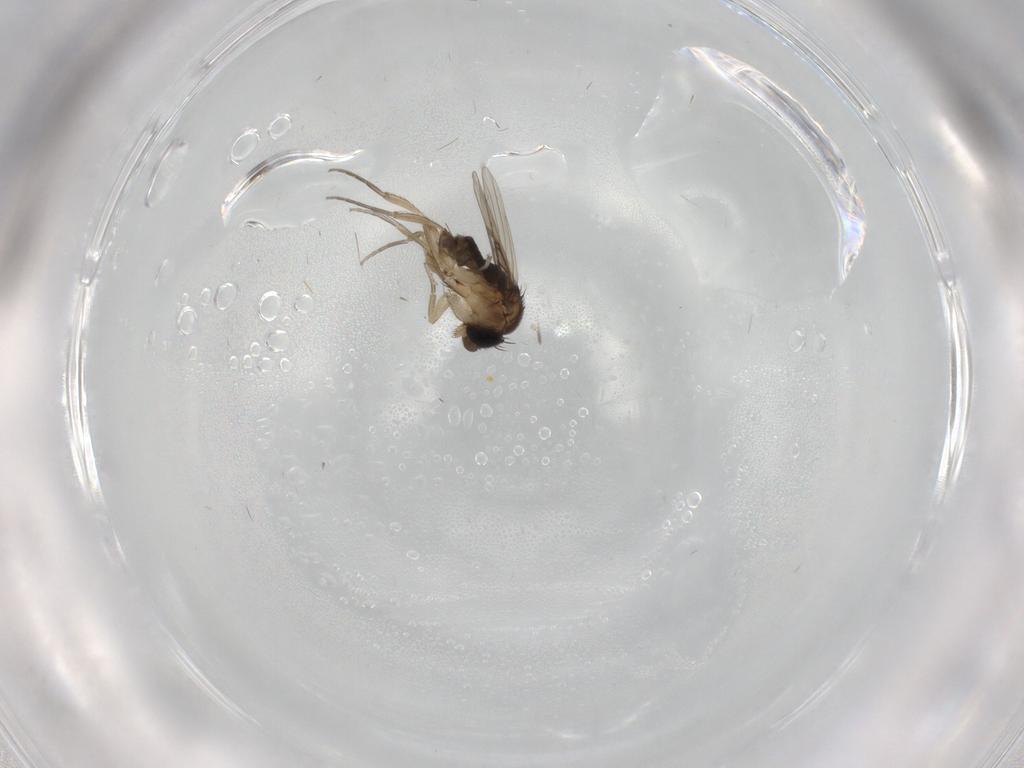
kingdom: Animalia
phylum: Arthropoda
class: Insecta
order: Diptera
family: Phoridae
